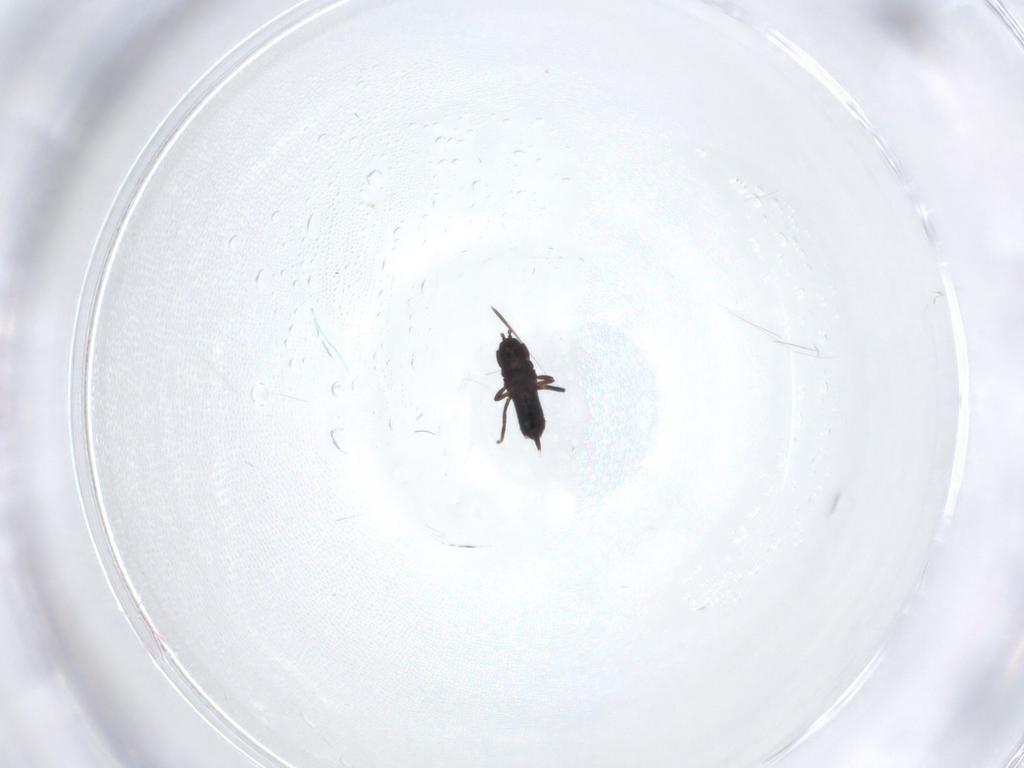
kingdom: Animalia
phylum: Arthropoda
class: Insecta
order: Thysanoptera
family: Phlaeothripidae
